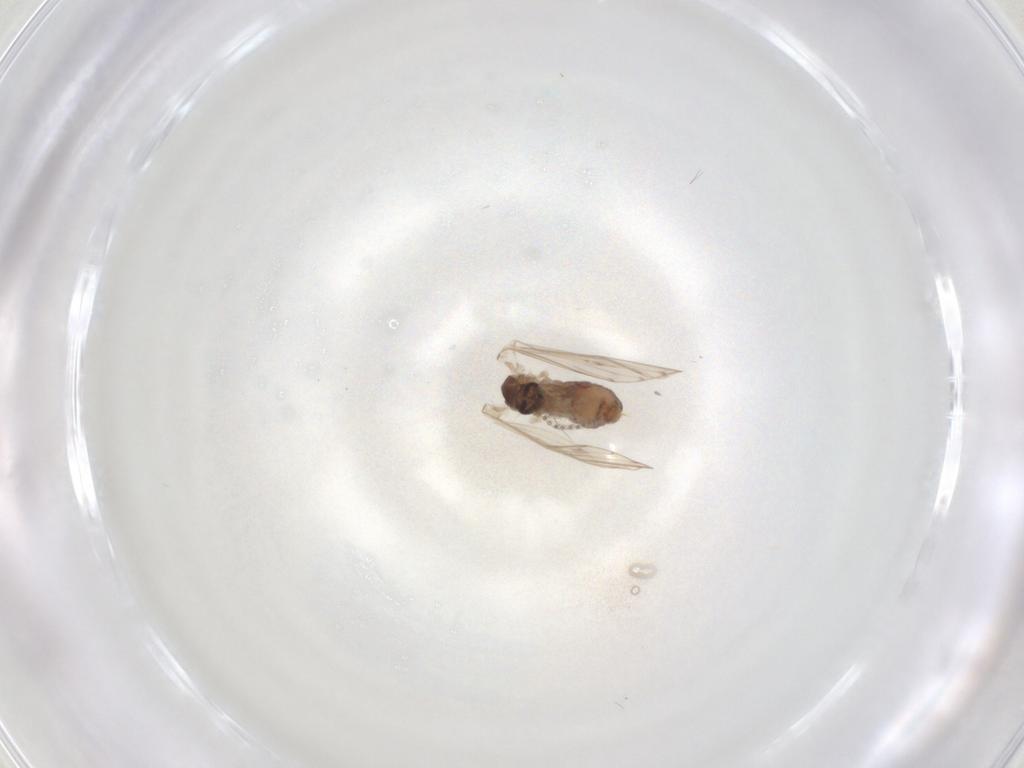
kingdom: Animalia
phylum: Arthropoda
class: Insecta
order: Diptera
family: Psychodidae
